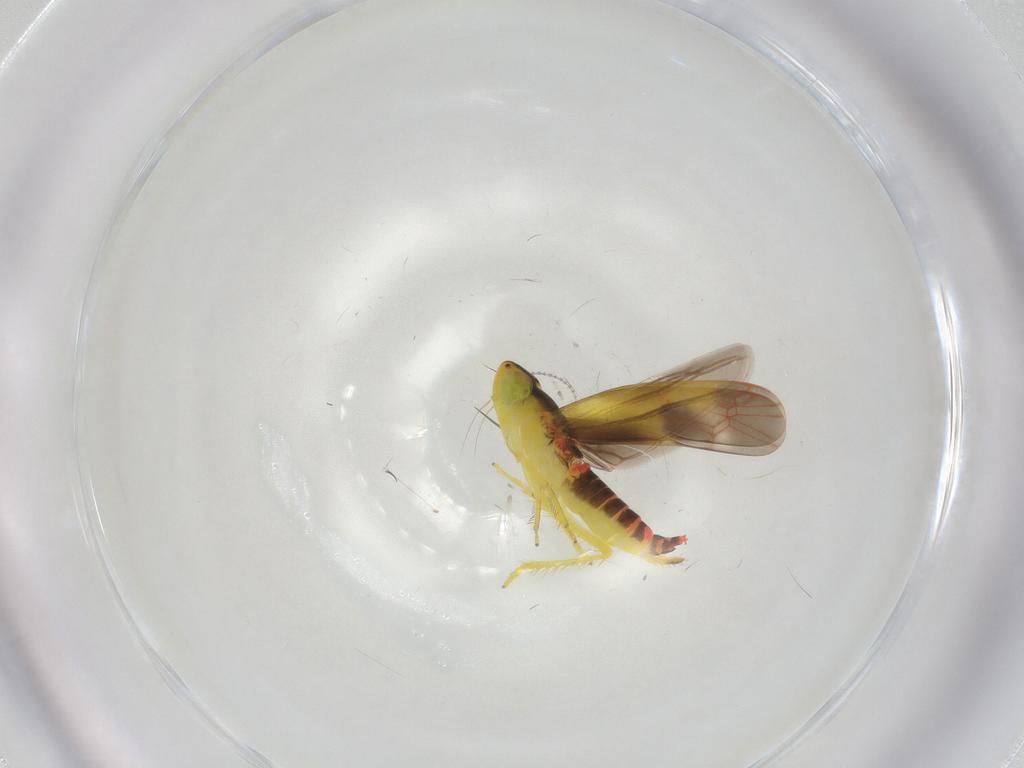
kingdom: Animalia
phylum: Arthropoda
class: Insecta
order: Hemiptera
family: Cicadellidae
